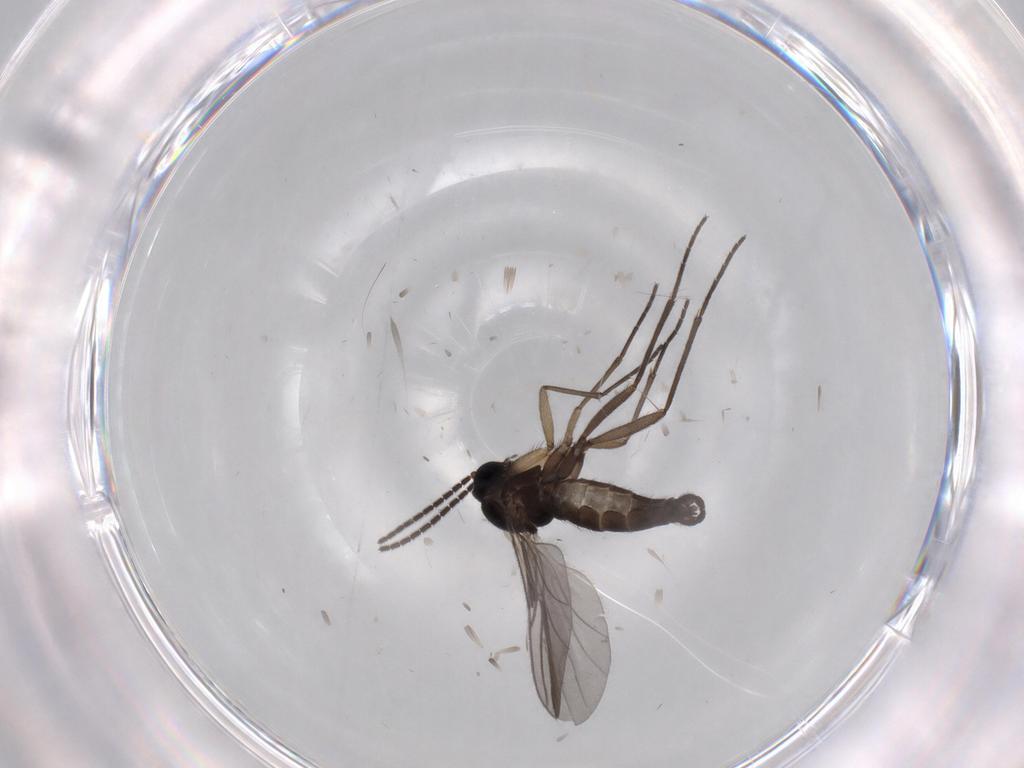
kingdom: Animalia
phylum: Arthropoda
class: Insecta
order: Diptera
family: Sciaridae
